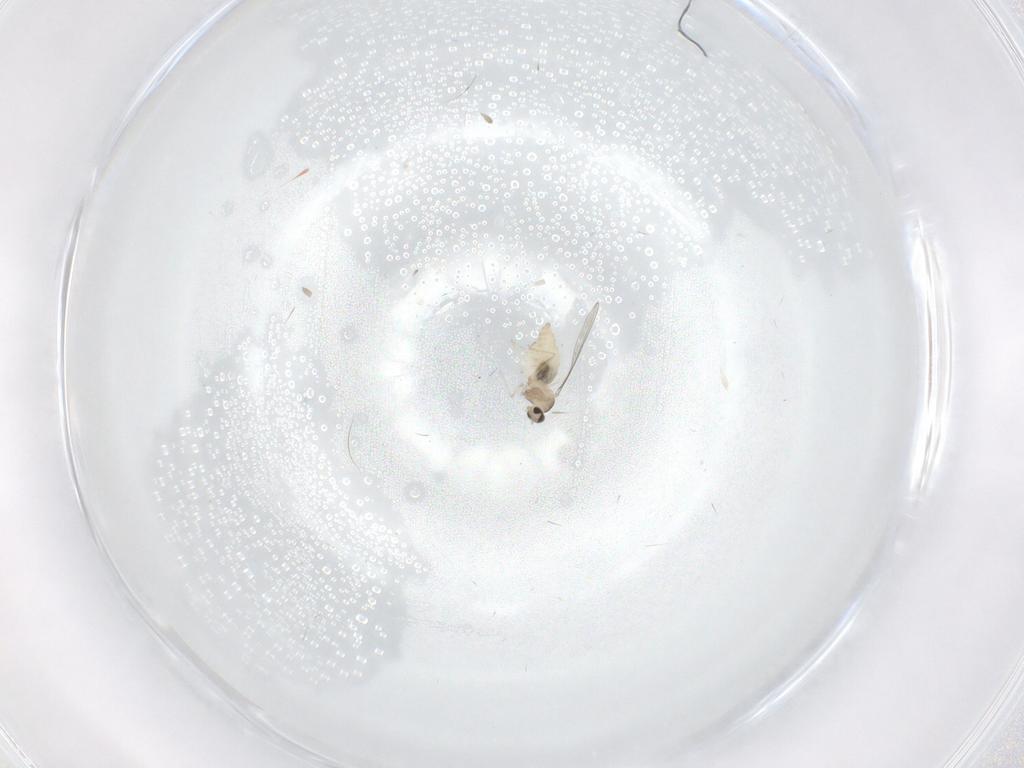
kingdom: Animalia
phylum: Arthropoda
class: Insecta
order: Diptera
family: Cecidomyiidae
